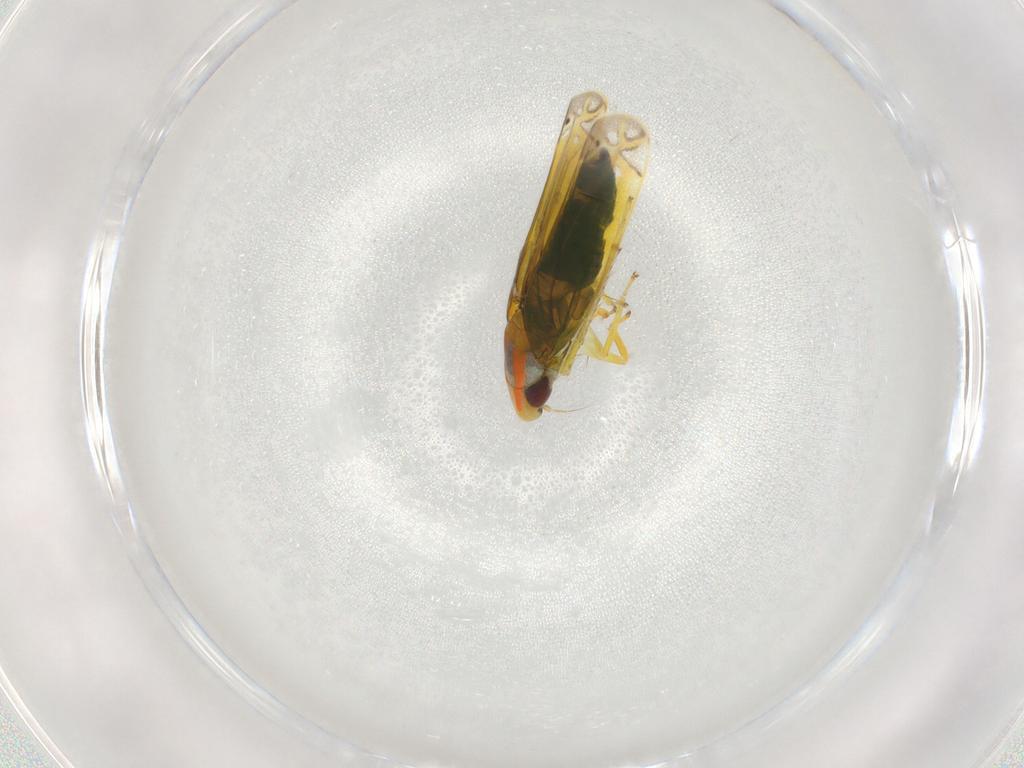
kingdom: Animalia
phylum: Arthropoda
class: Insecta
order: Hemiptera
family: Cicadellidae
